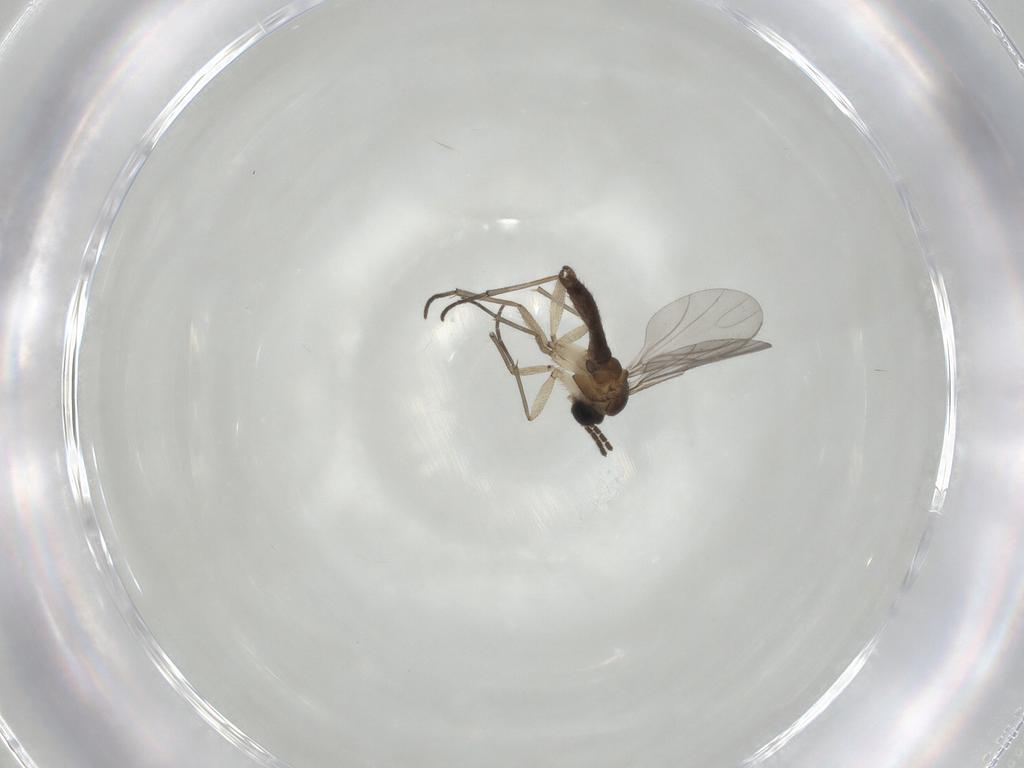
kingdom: Animalia
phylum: Arthropoda
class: Insecta
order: Diptera
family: Sciaridae
